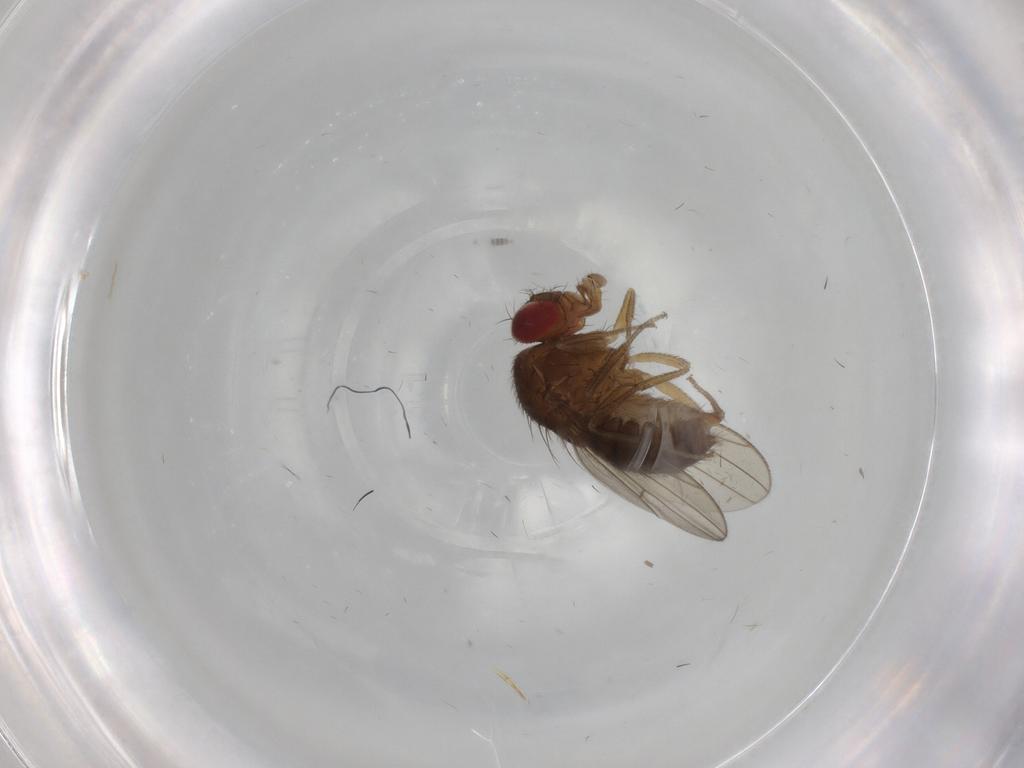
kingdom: Animalia
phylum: Arthropoda
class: Insecta
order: Diptera
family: Drosophilidae
